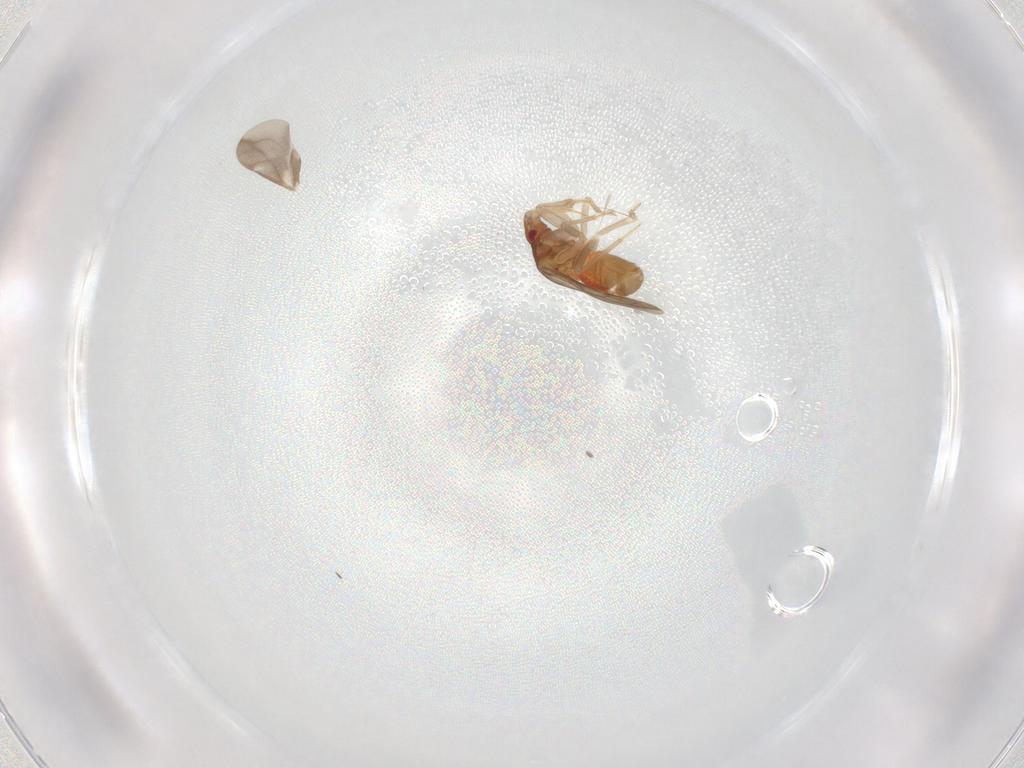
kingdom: Animalia
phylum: Arthropoda
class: Insecta
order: Hemiptera
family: Ceratocombidae
